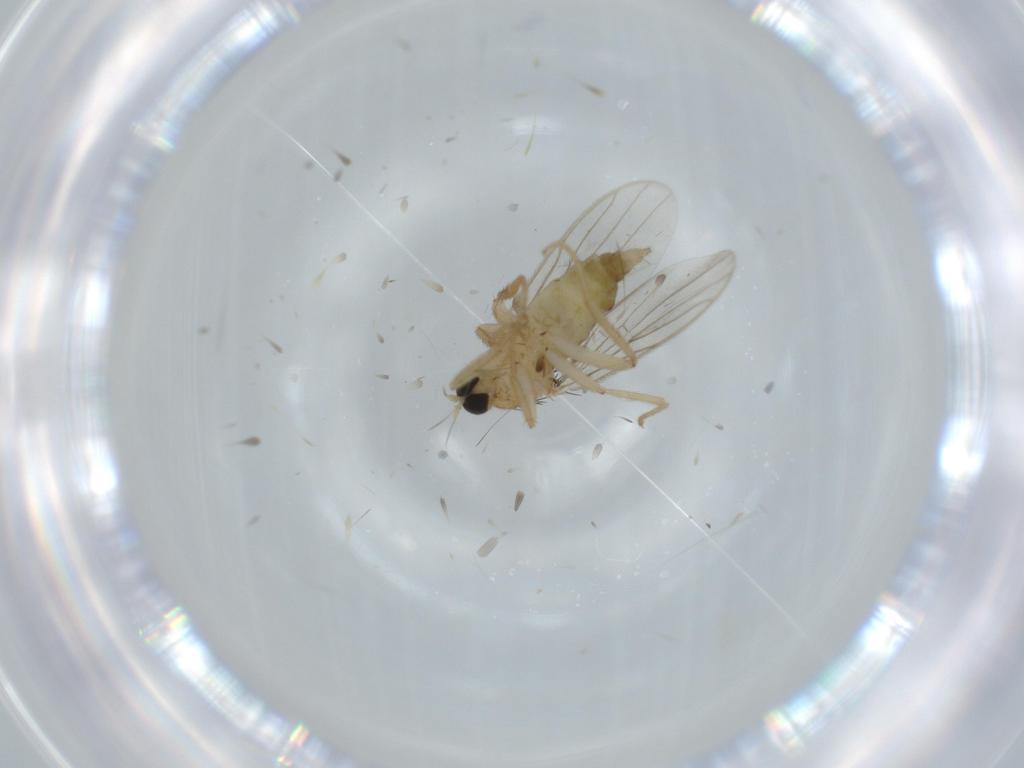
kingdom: Animalia
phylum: Arthropoda
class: Insecta
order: Diptera
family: Hybotidae
